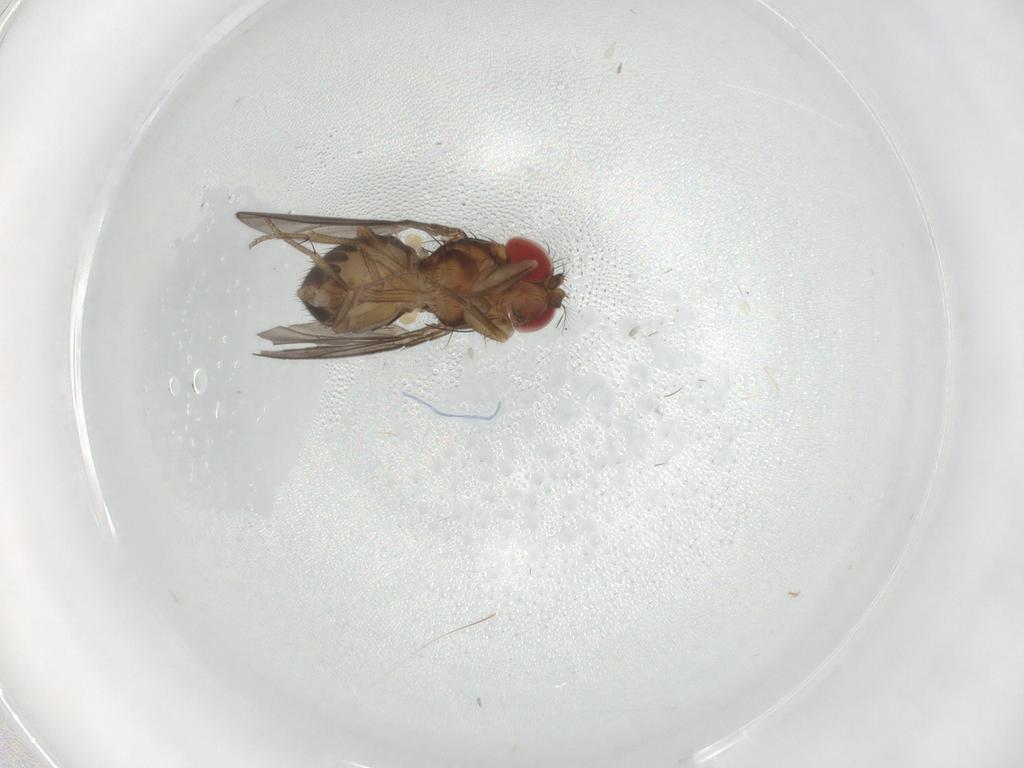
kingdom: Animalia
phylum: Arthropoda
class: Insecta
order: Diptera
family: Drosophilidae
